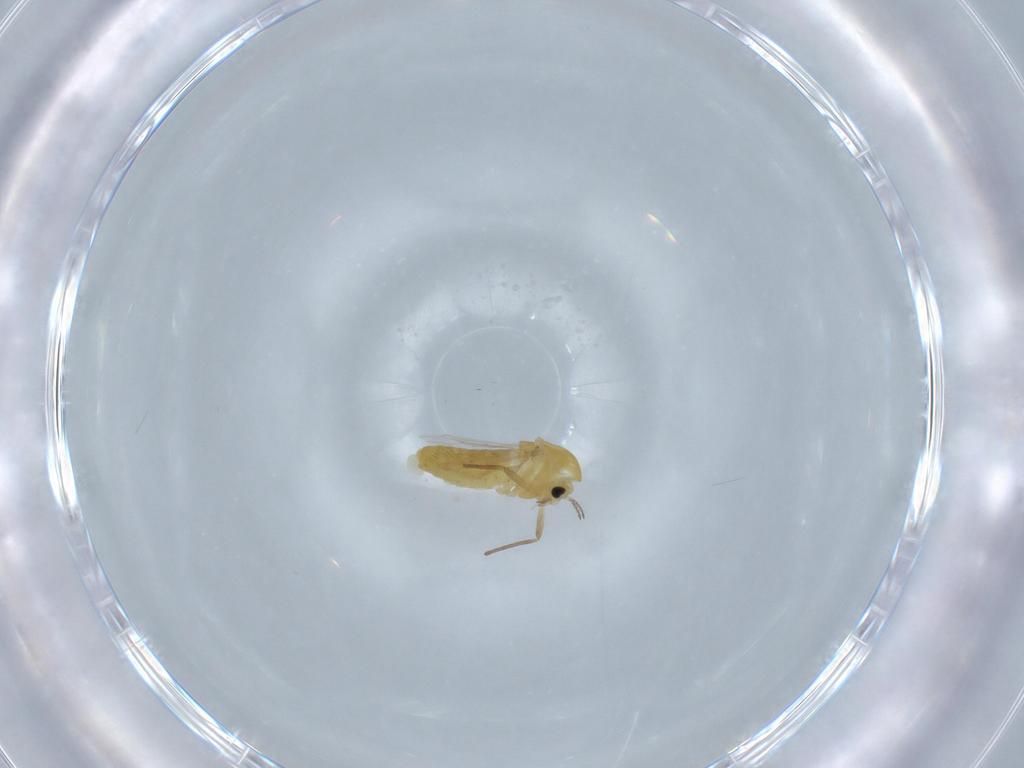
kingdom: Animalia
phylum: Arthropoda
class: Insecta
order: Diptera
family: Chironomidae
